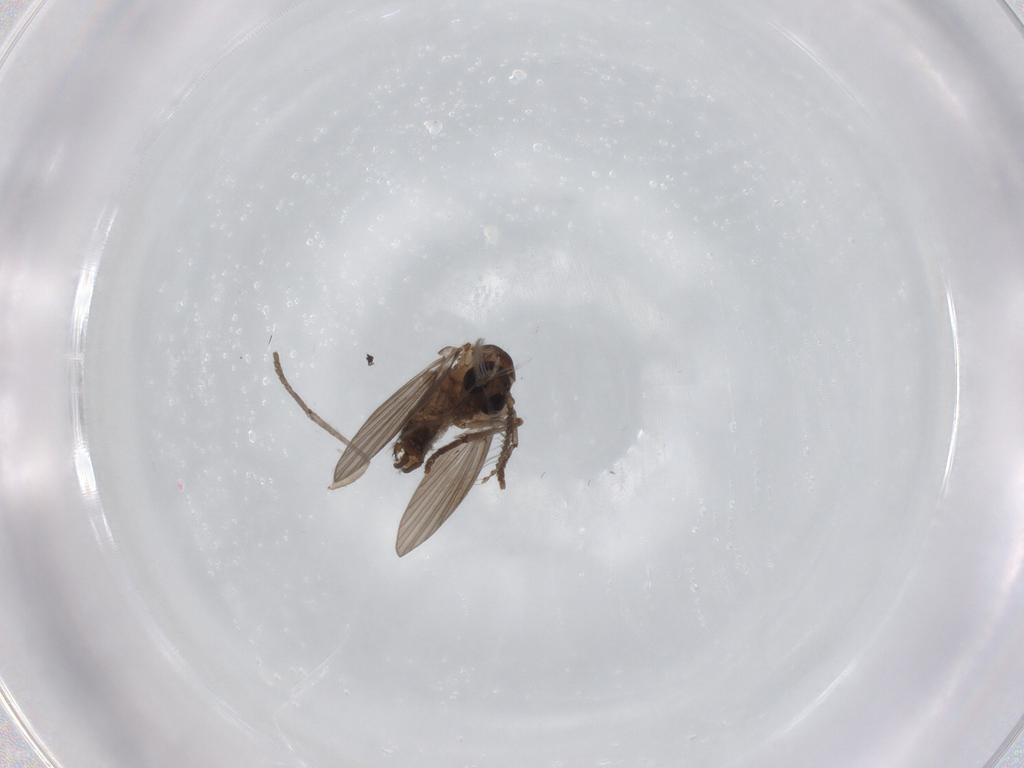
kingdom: Animalia
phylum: Arthropoda
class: Insecta
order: Diptera
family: Psychodidae
